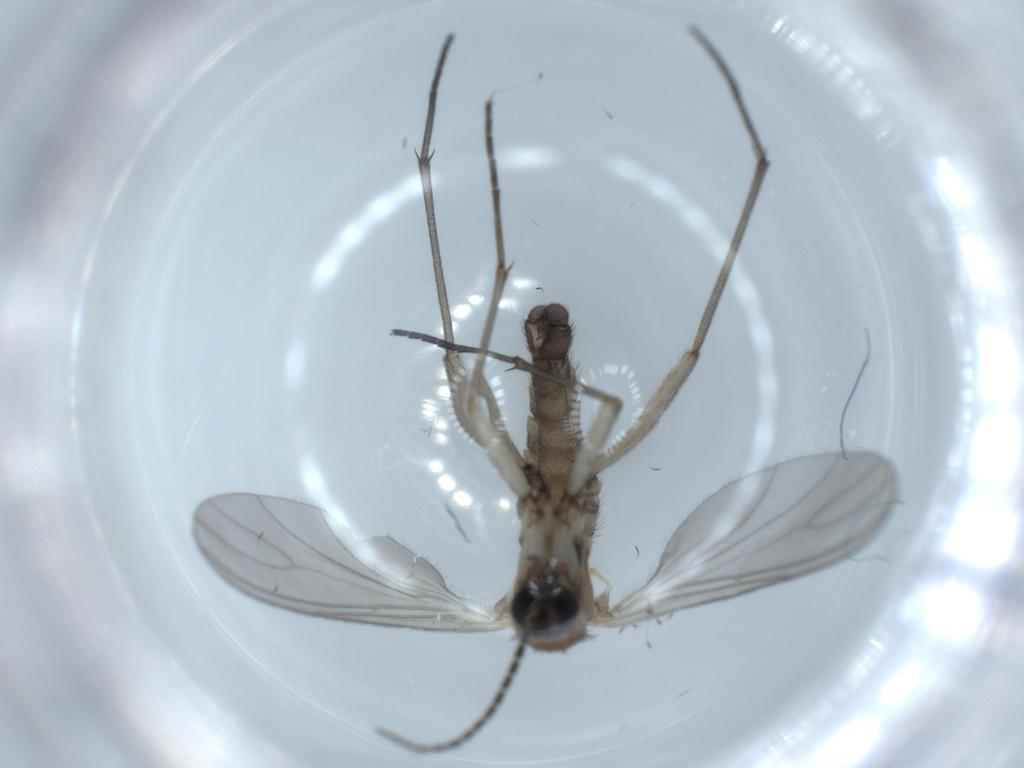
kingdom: Animalia
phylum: Arthropoda
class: Insecta
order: Diptera
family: Sciaridae
